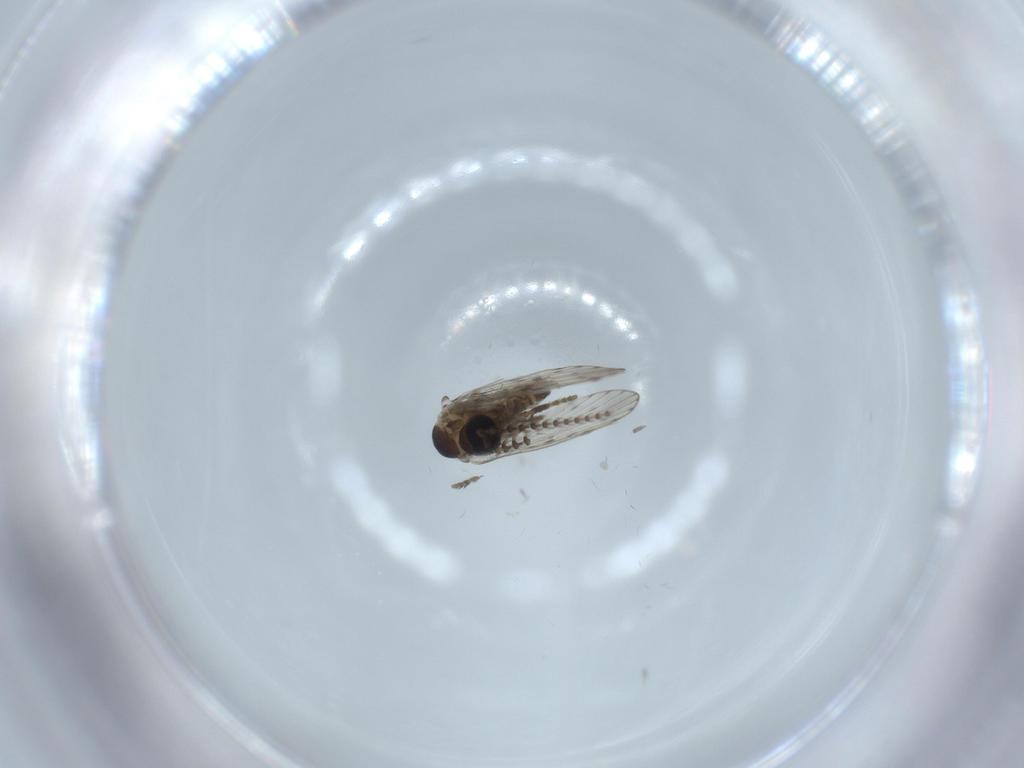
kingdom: Animalia
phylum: Arthropoda
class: Insecta
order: Diptera
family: Psychodidae
